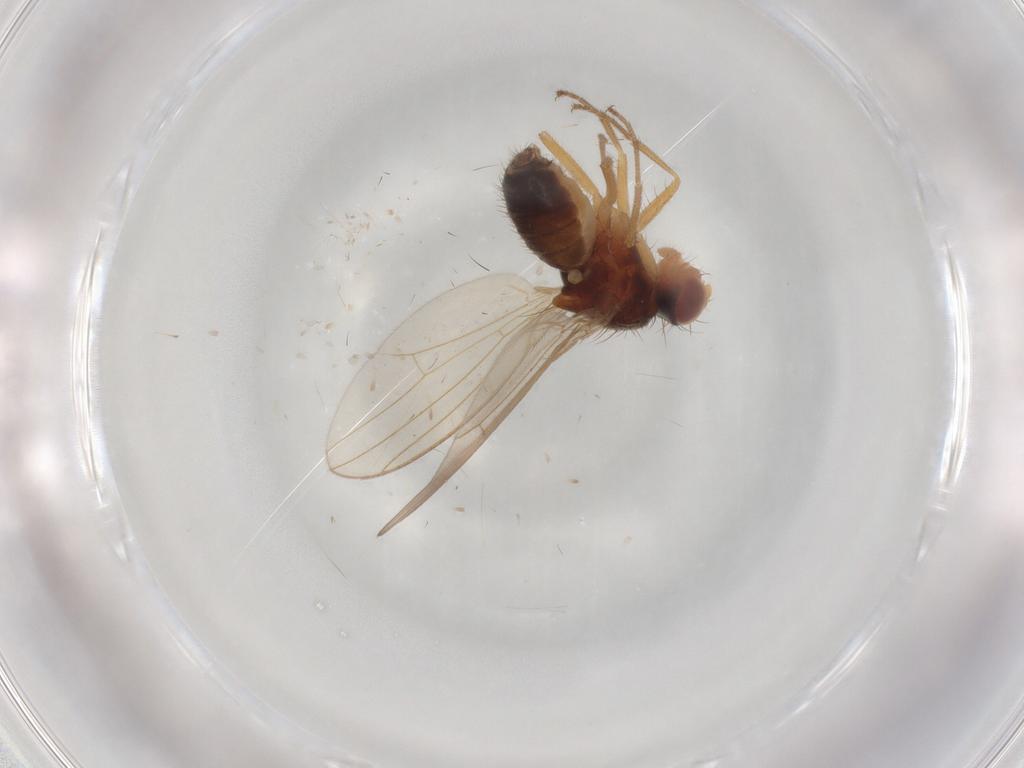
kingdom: Animalia
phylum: Arthropoda
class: Insecta
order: Diptera
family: Drosophilidae
